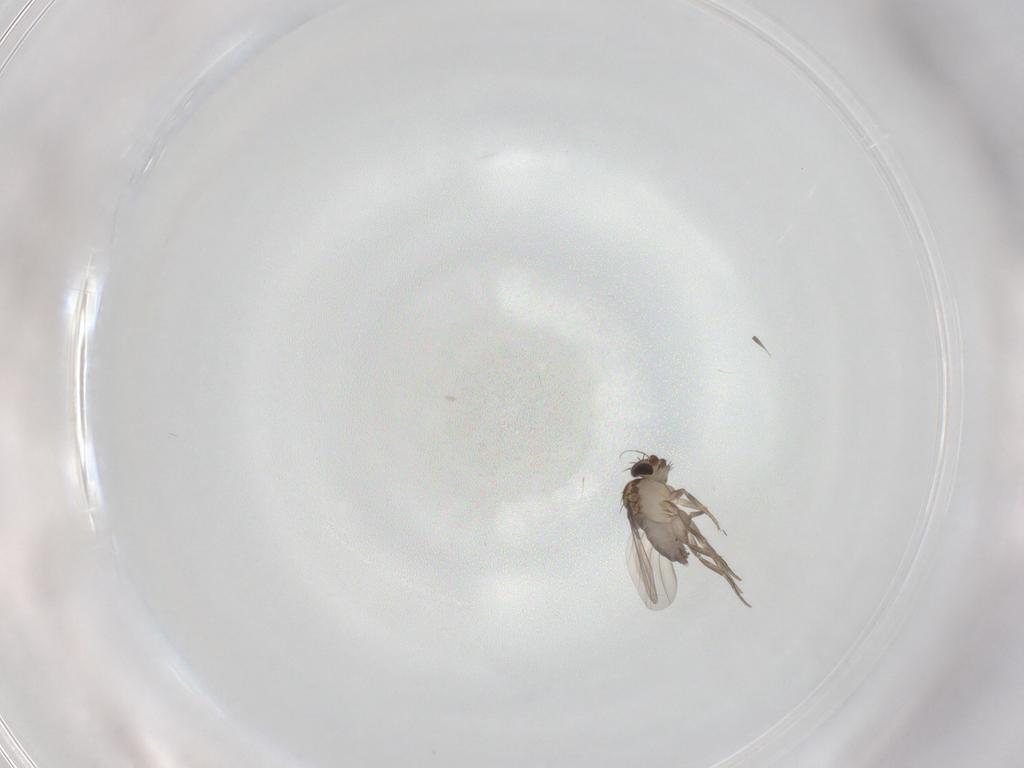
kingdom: Animalia
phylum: Arthropoda
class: Insecta
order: Diptera
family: Phoridae
